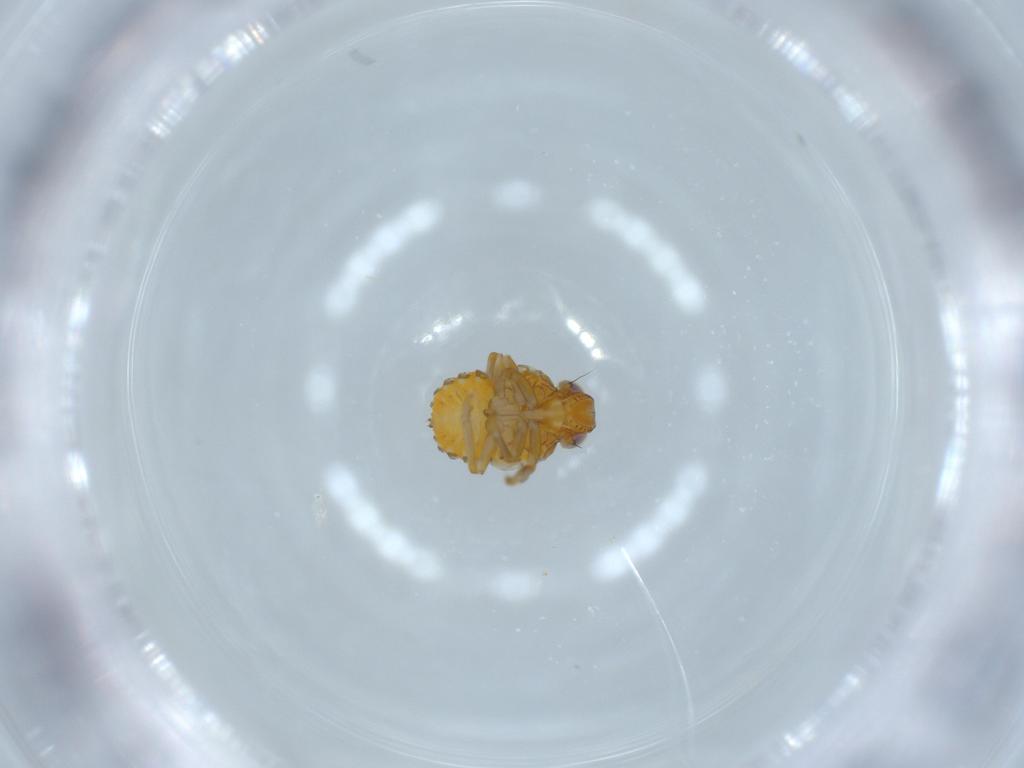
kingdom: Animalia
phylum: Arthropoda
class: Insecta
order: Hemiptera
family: Issidae
